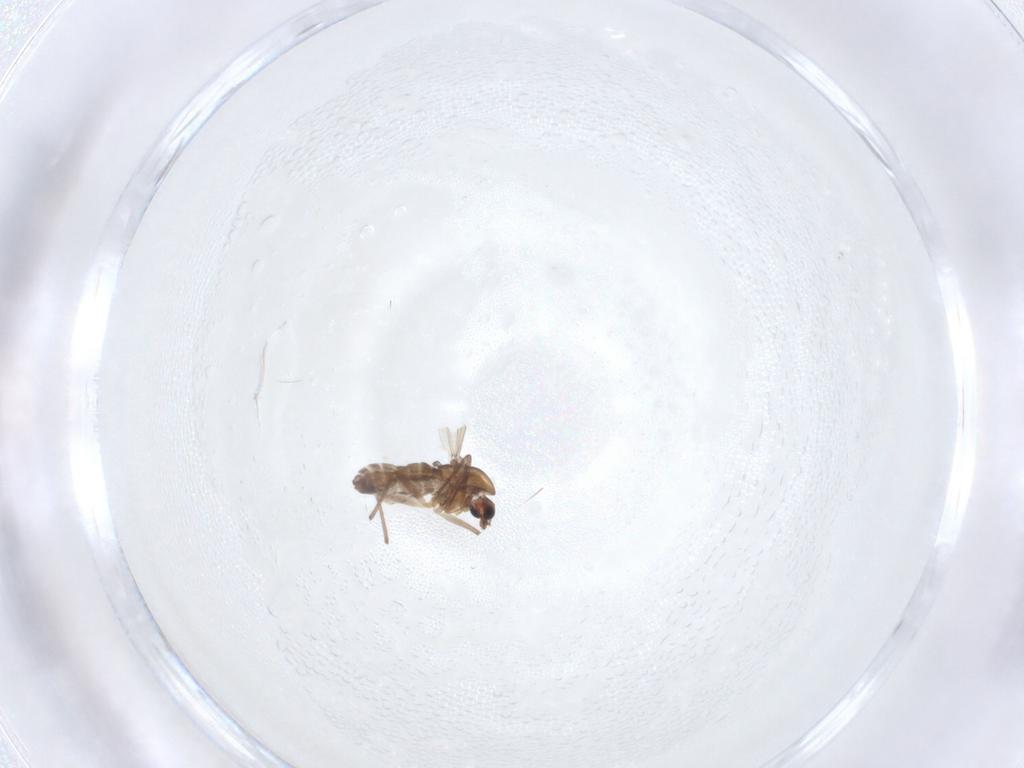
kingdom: Animalia
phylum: Arthropoda
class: Insecta
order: Diptera
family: Chironomidae
